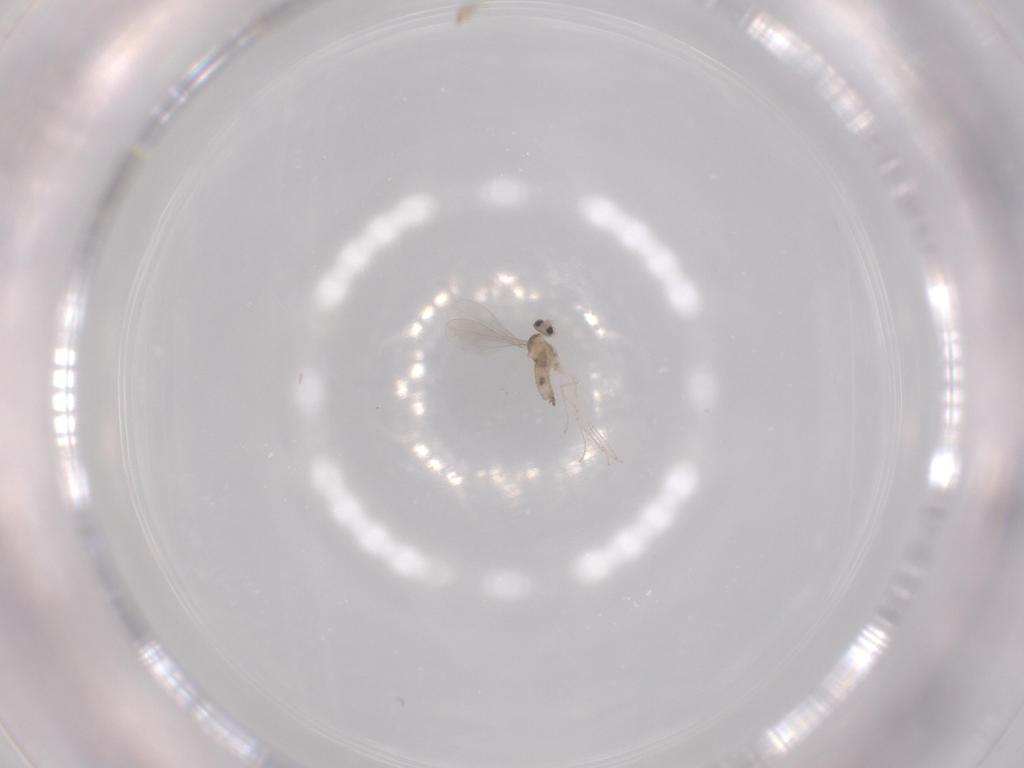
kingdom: Animalia
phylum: Arthropoda
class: Insecta
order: Diptera
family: Cecidomyiidae
